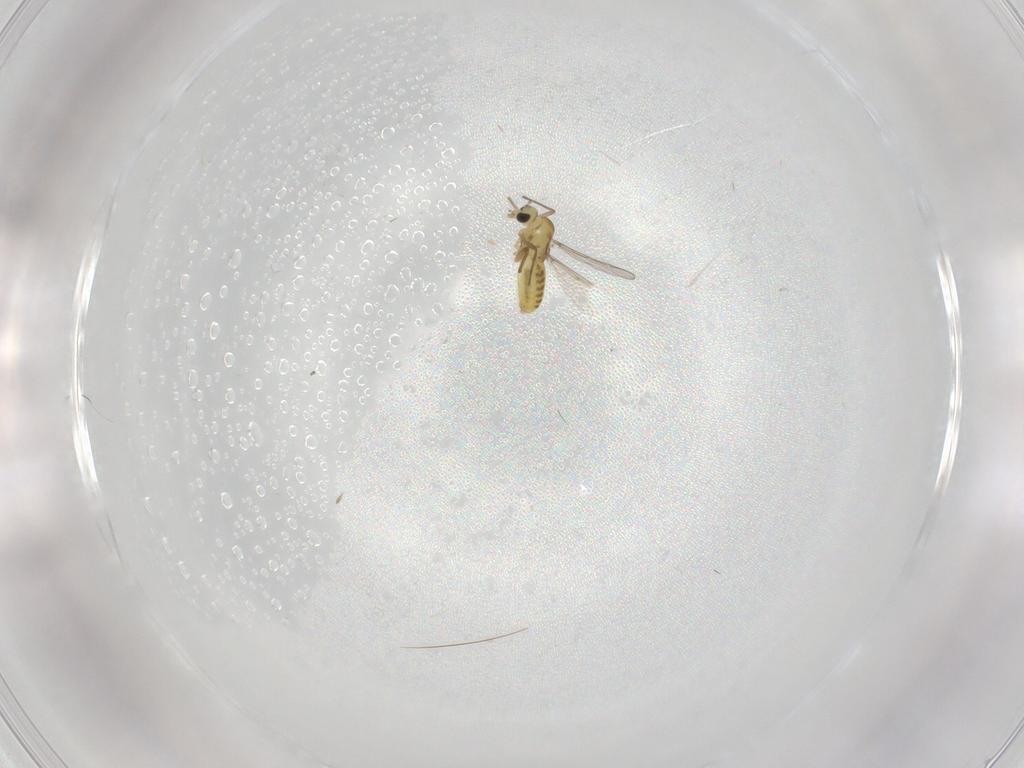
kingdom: Animalia
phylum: Arthropoda
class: Insecta
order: Diptera
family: Chironomidae
